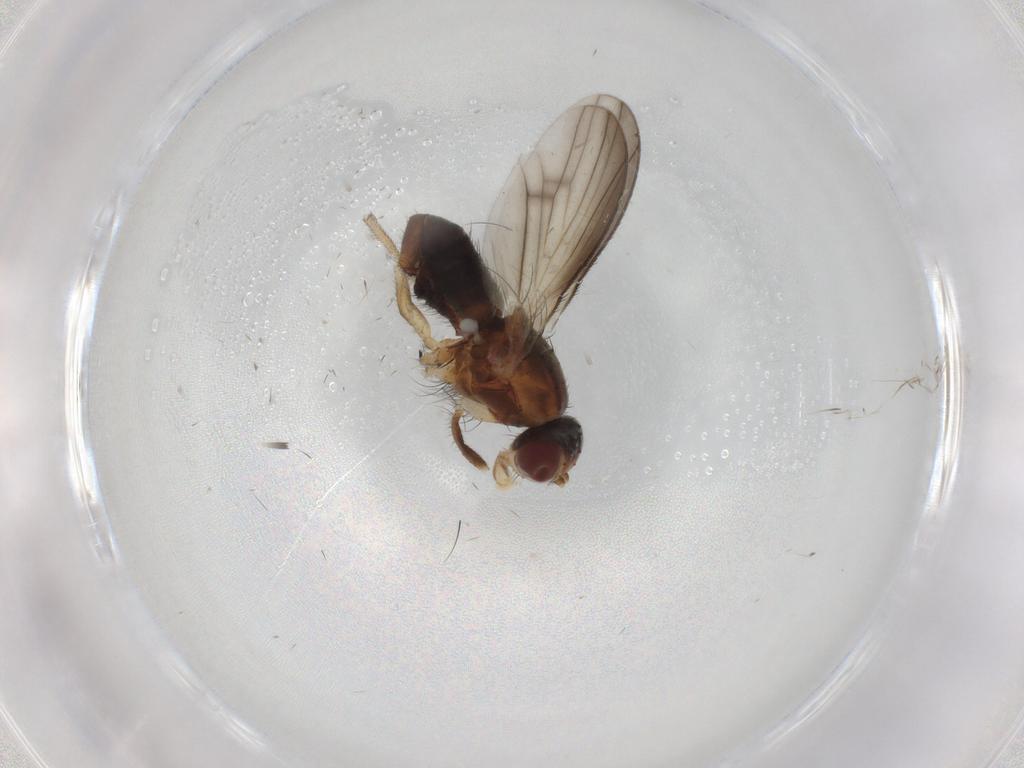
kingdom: Animalia
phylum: Arthropoda
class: Insecta
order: Diptera
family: Heleomyzidae
